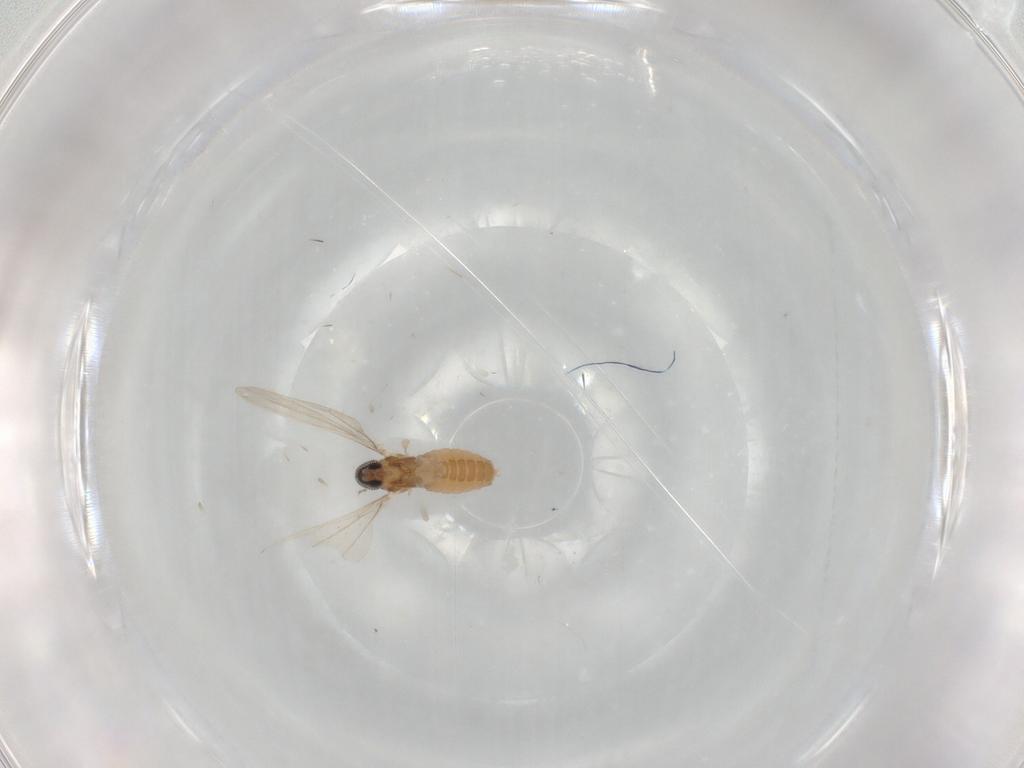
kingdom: Animalia
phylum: Arthropoda
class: Insecta
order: Diptera
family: Cecidomyiidae
